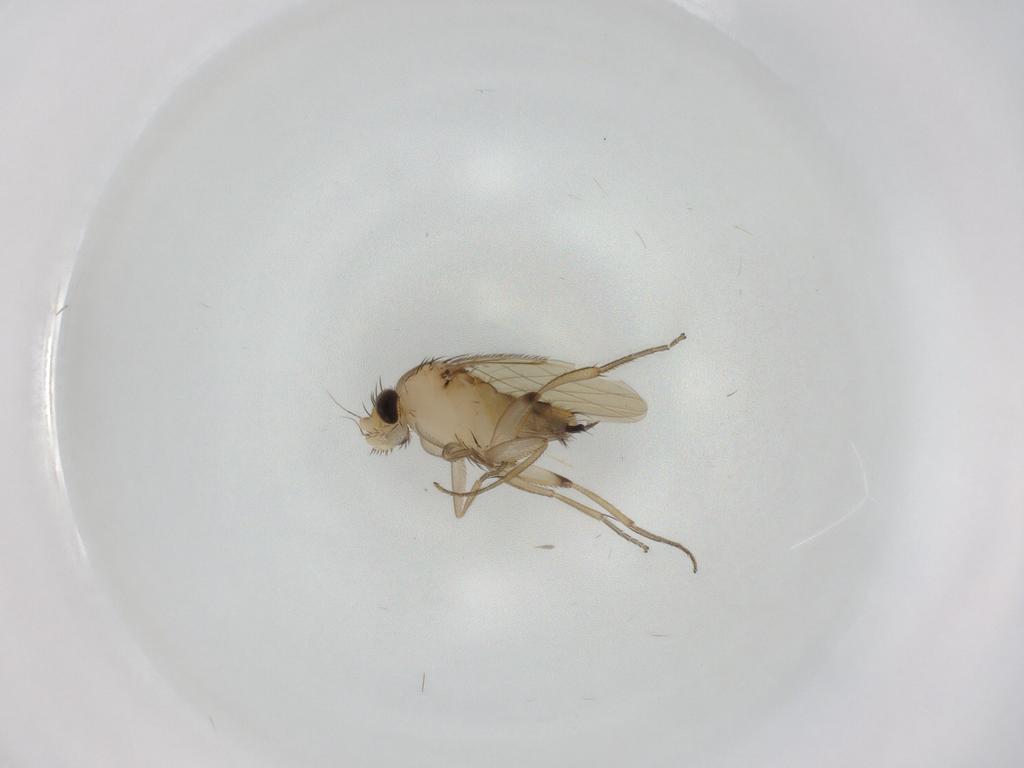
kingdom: Animalia
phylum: Arthropoda
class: Insecta
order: Diptera
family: Phoridae
